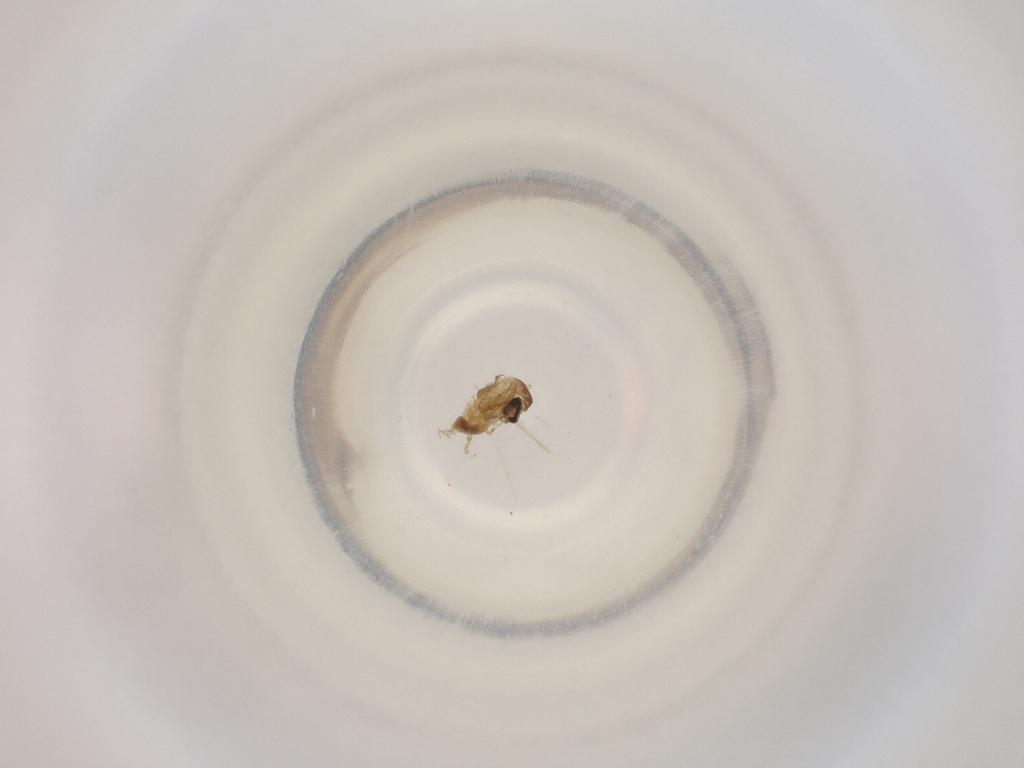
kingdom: Animalia
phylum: Arthropoda
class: Insecta
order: Diptera
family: Cecidomyiidae
